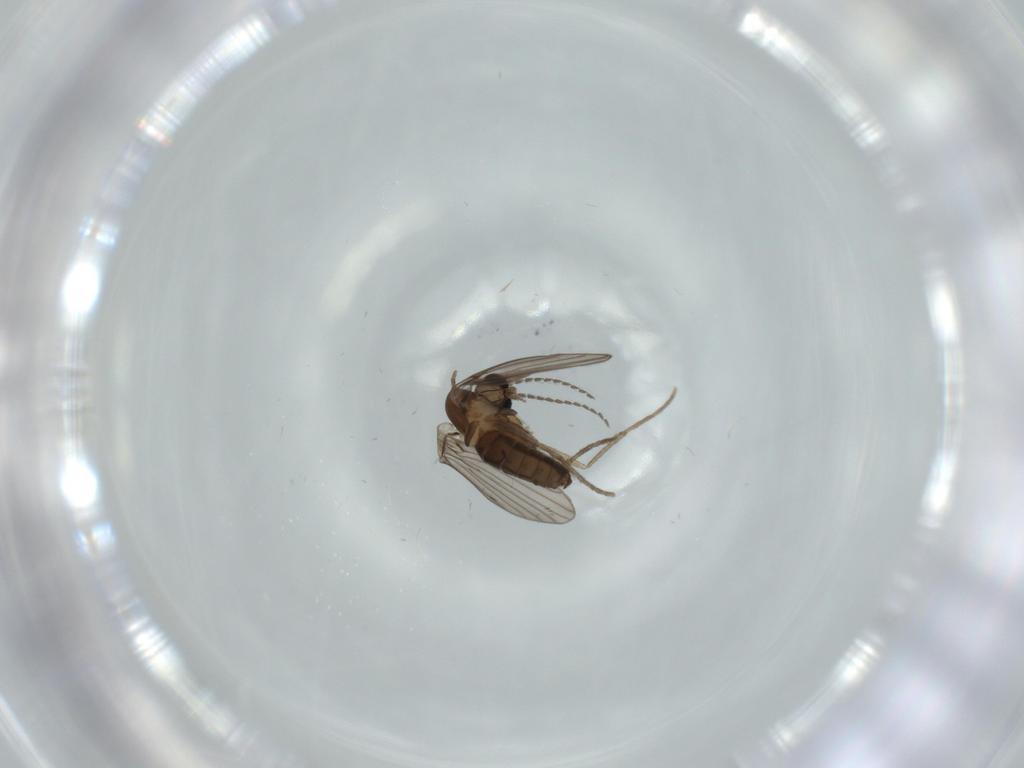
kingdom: Animalia
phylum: Arthropoda
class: Insecta
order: Diptera
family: Psychodidae
